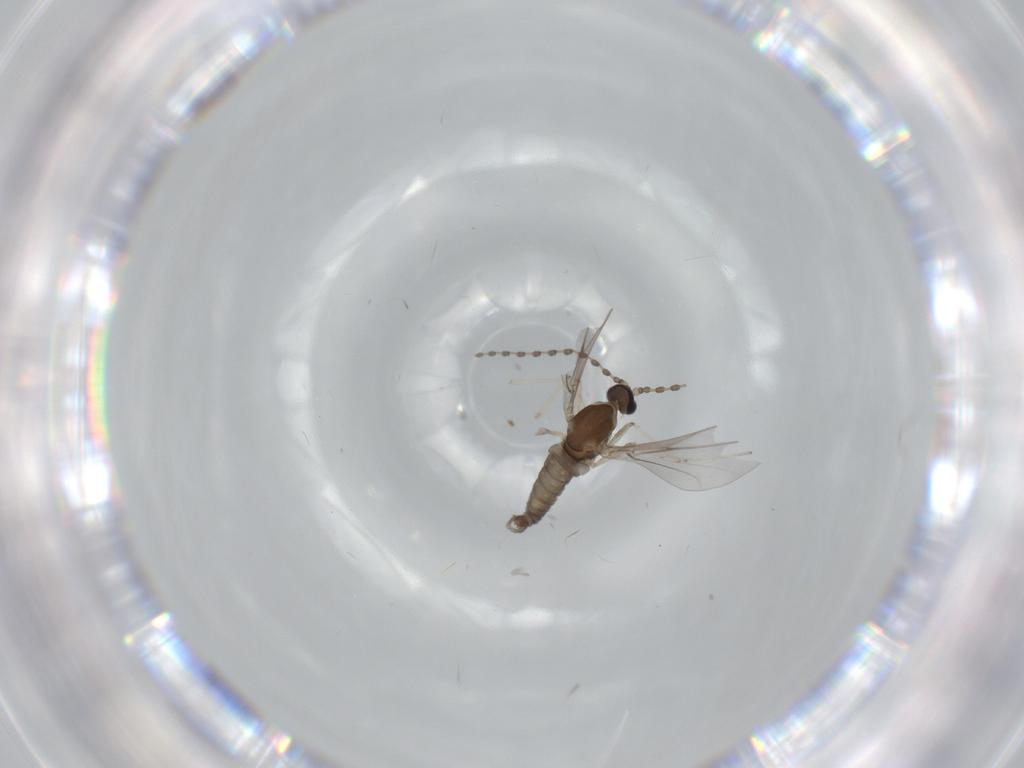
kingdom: Animalia
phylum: Arthropoda
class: Insecta
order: Diptera
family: Cecidomyiidae
